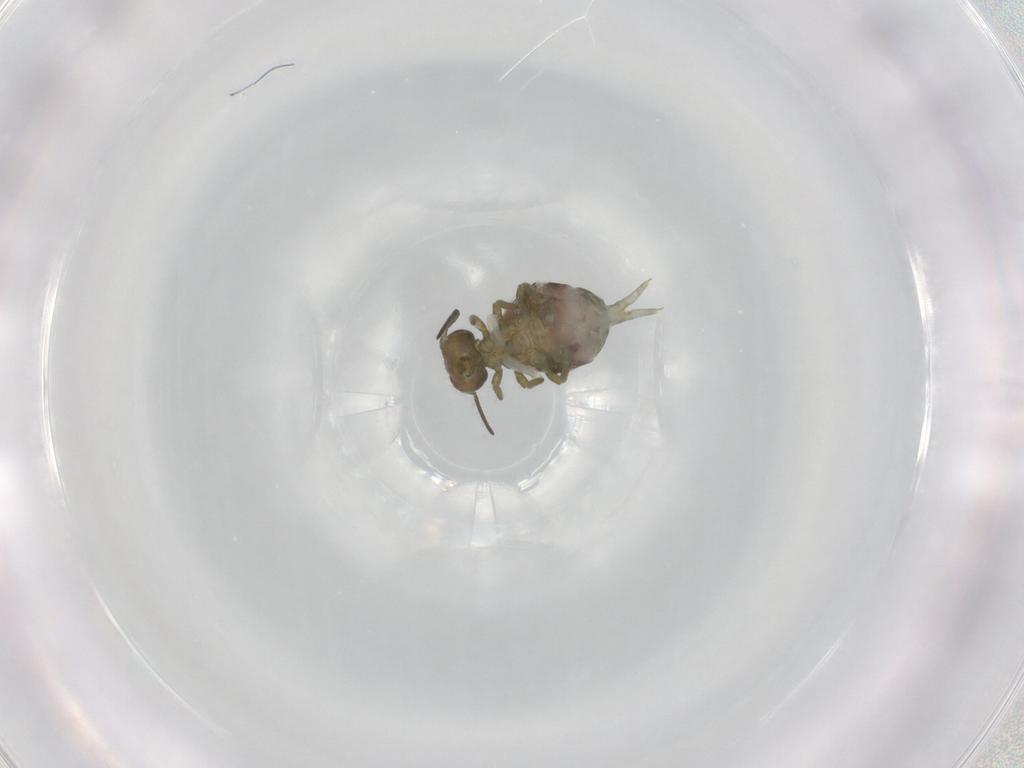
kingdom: Animalia
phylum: Arthropoda
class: Collembola
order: Symphypleona
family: Sminthuridae
